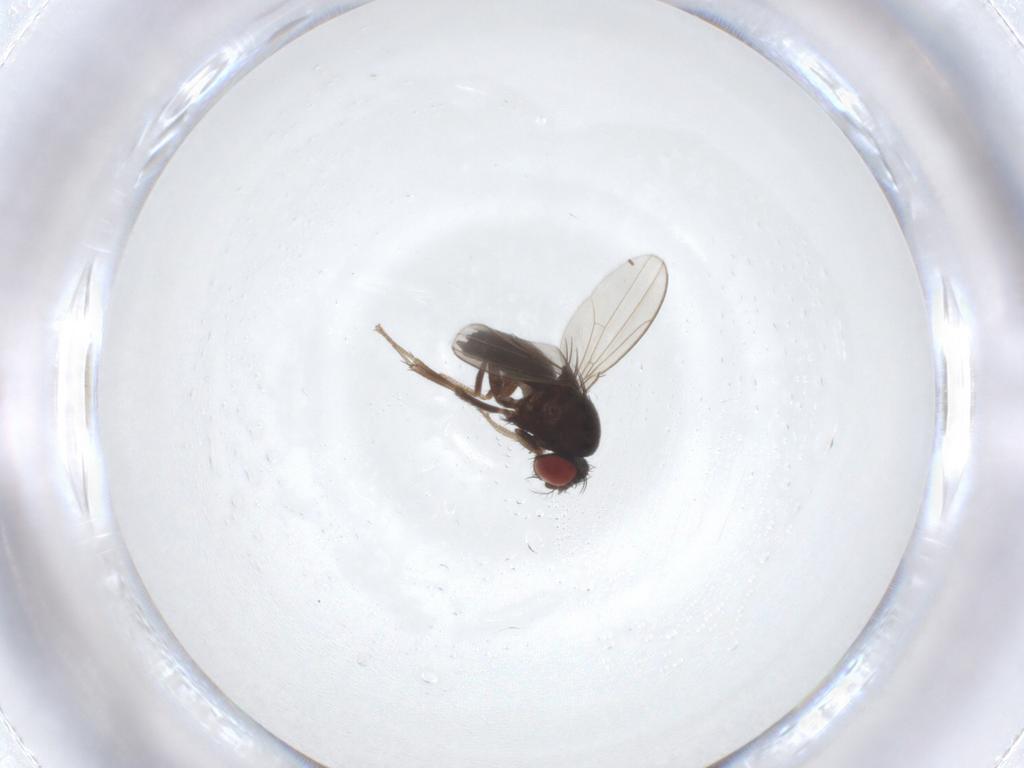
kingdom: Animalia
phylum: Arthropoda
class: Insecta
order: Diptera
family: Drosophilidae
